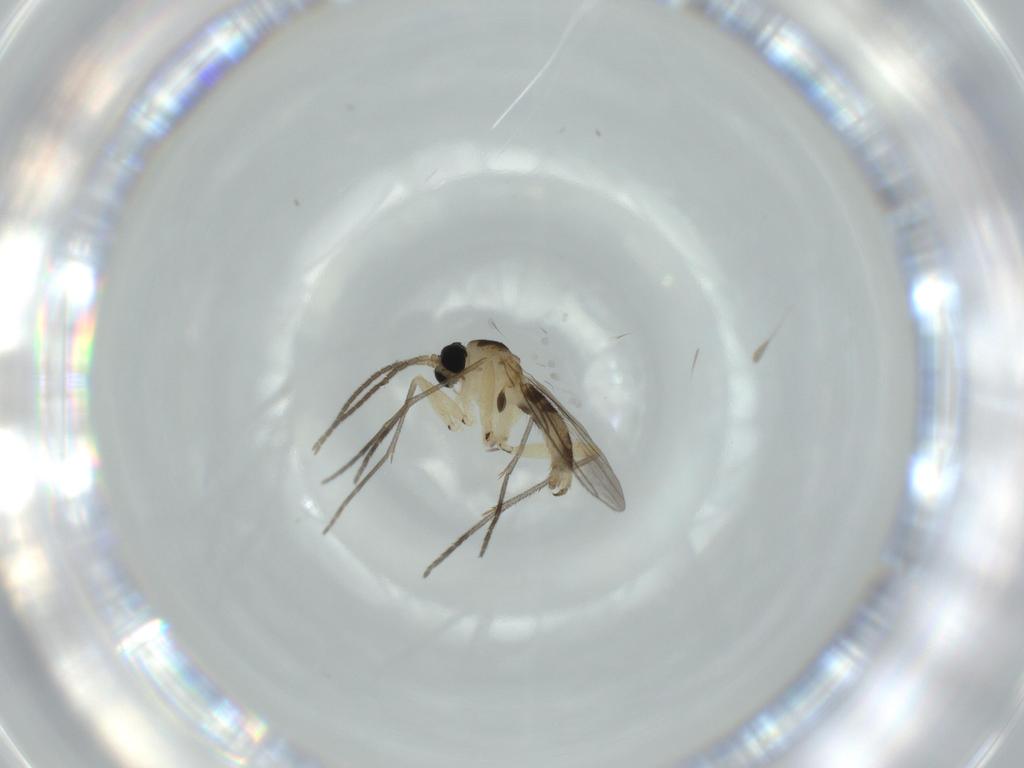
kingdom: Animalia
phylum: Arthropoda
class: Insecta
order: Diptera
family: Sciaridae
